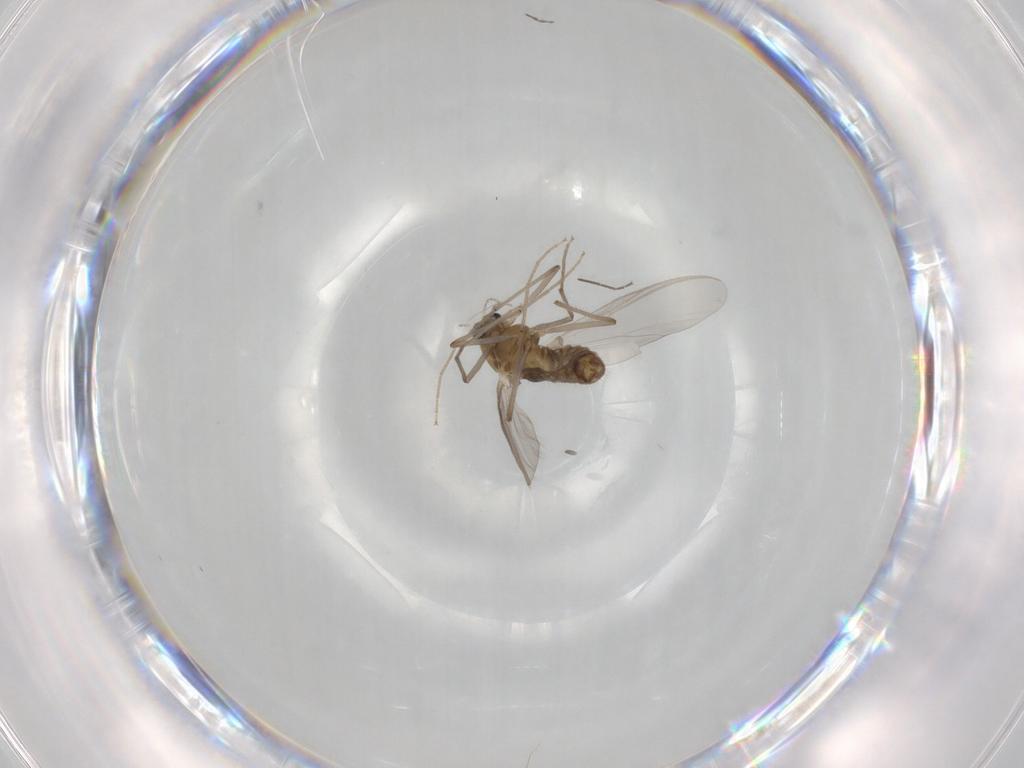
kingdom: Animalia
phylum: Arthropoda
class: Insecta
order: Diptera
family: Chironomidae
